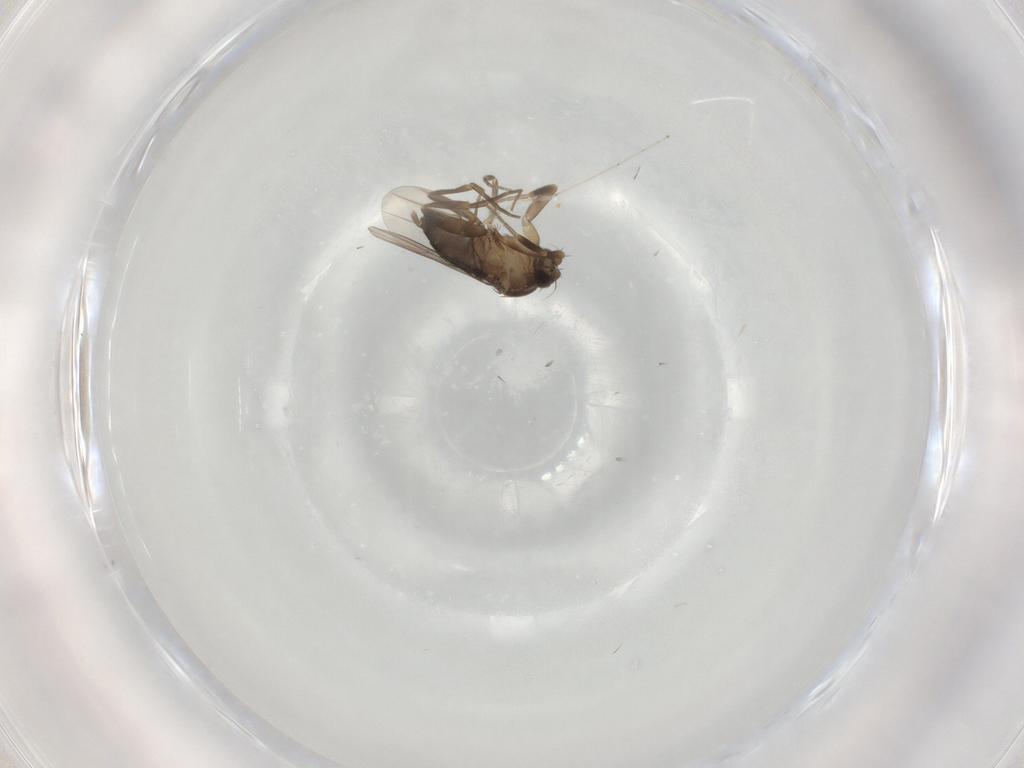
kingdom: Animalia
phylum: Arthropoda
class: Insecta
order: Diptera
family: Phoridae
